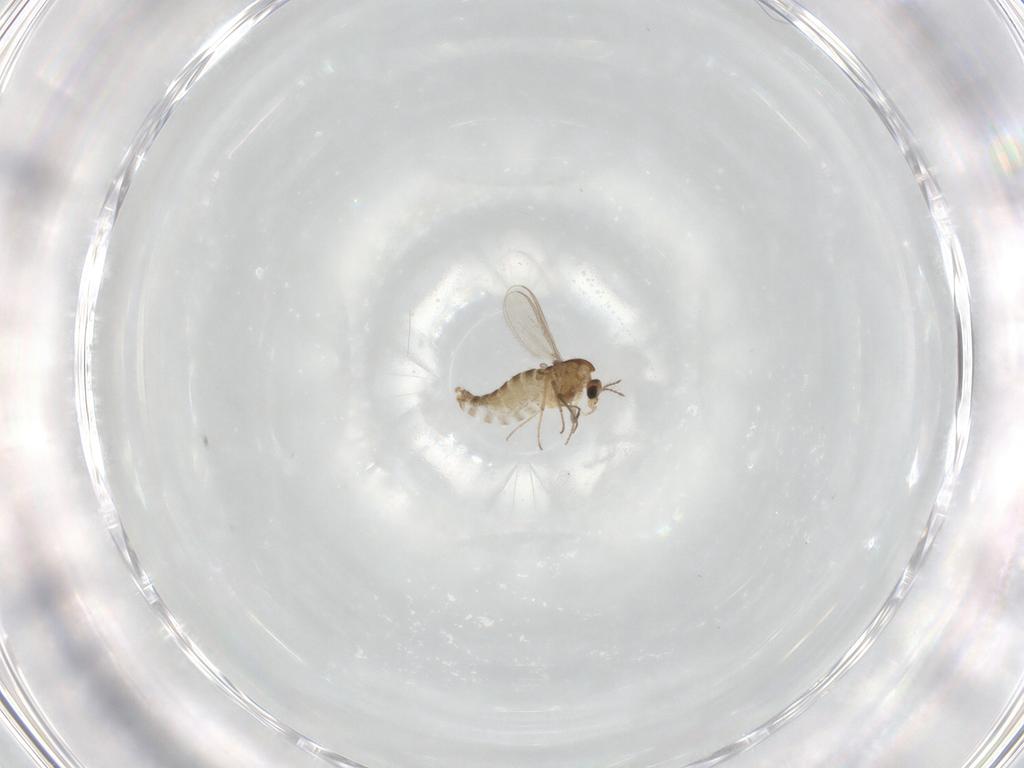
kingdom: Animalia
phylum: Arthropoda
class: Insecta
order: Diptera
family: Chironomidae
